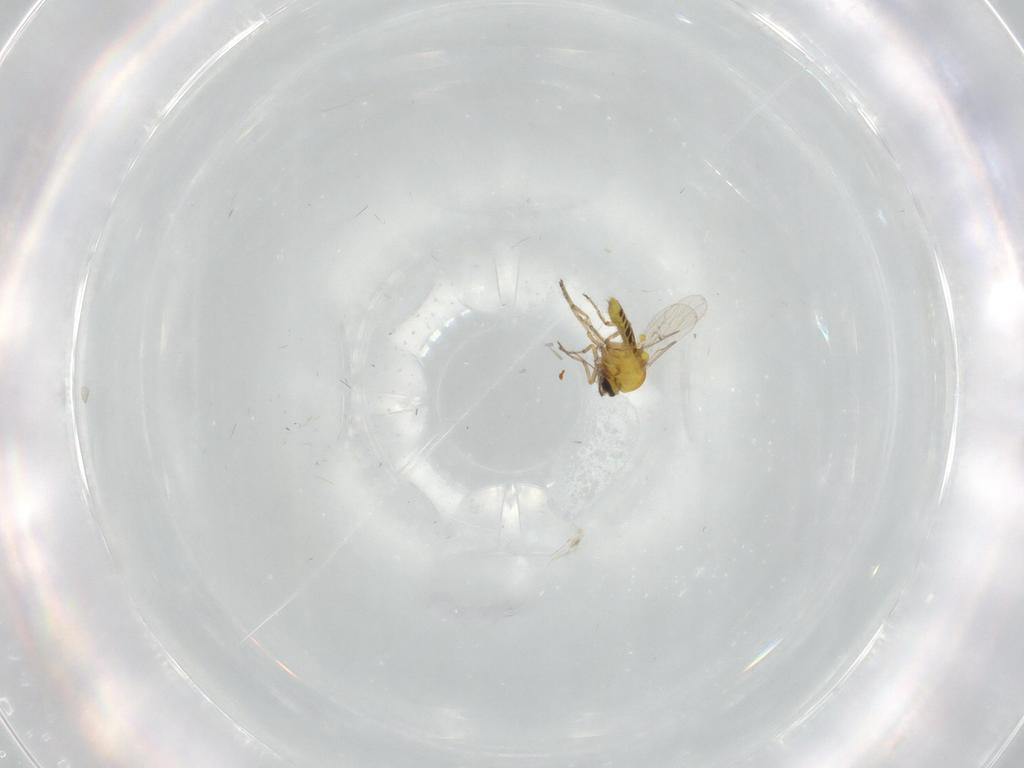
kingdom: Animalia
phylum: Arthropoda
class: Insecta
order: Diptera
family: Ceratopogonidae
